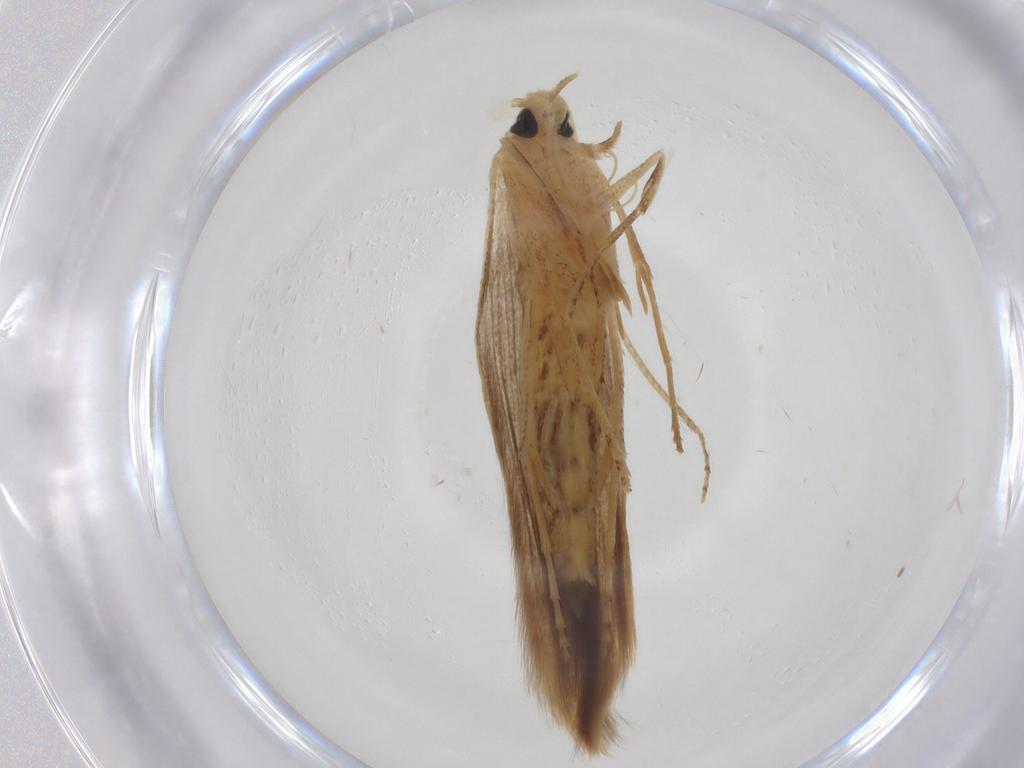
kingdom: Animalia
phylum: Arthropoda
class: Insecta
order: Lepidoptera
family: Batrachedridae
